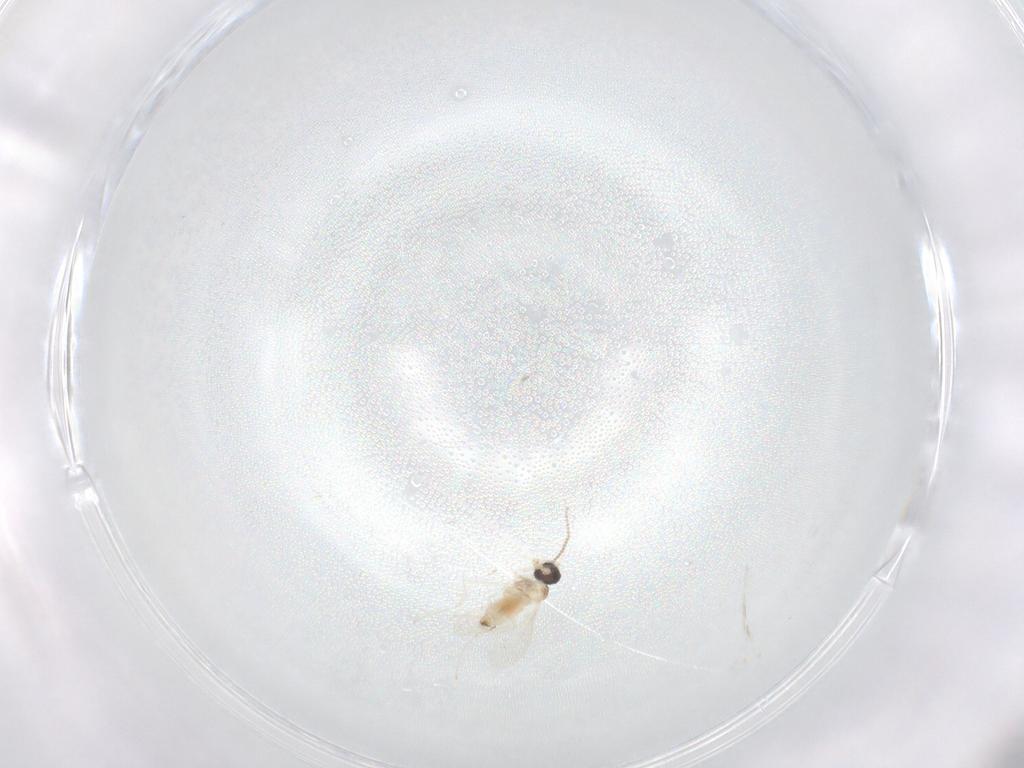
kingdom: Animalia
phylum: Arthropoda
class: Insecta
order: Diptera
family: Cecidomyiidae
